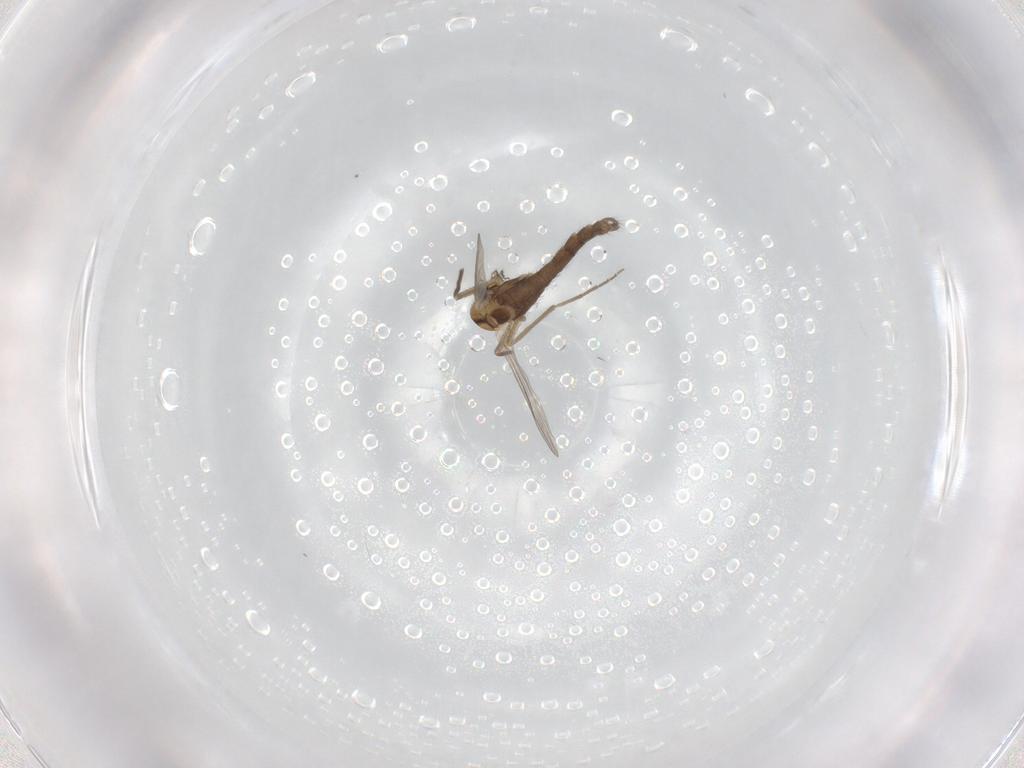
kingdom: Animalia
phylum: Arthropoda
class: Insecta
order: Diptera
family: Chironomidae
